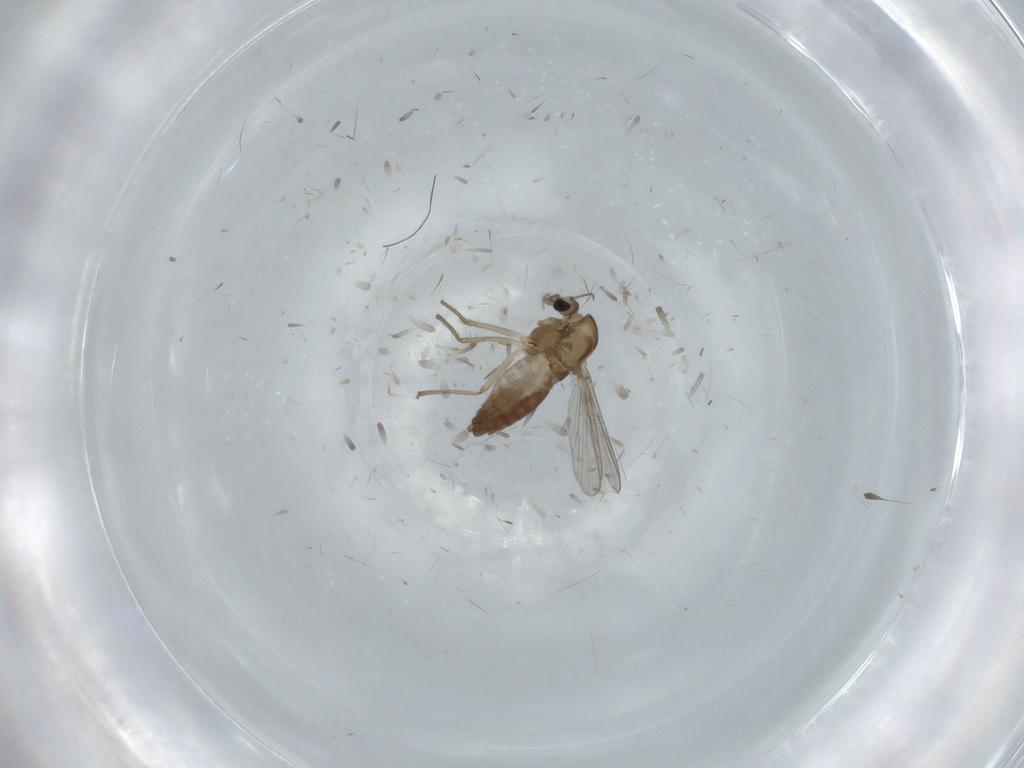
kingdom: Animalia
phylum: Arthropoda
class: Insecta
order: Diptera
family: Chironomidae
